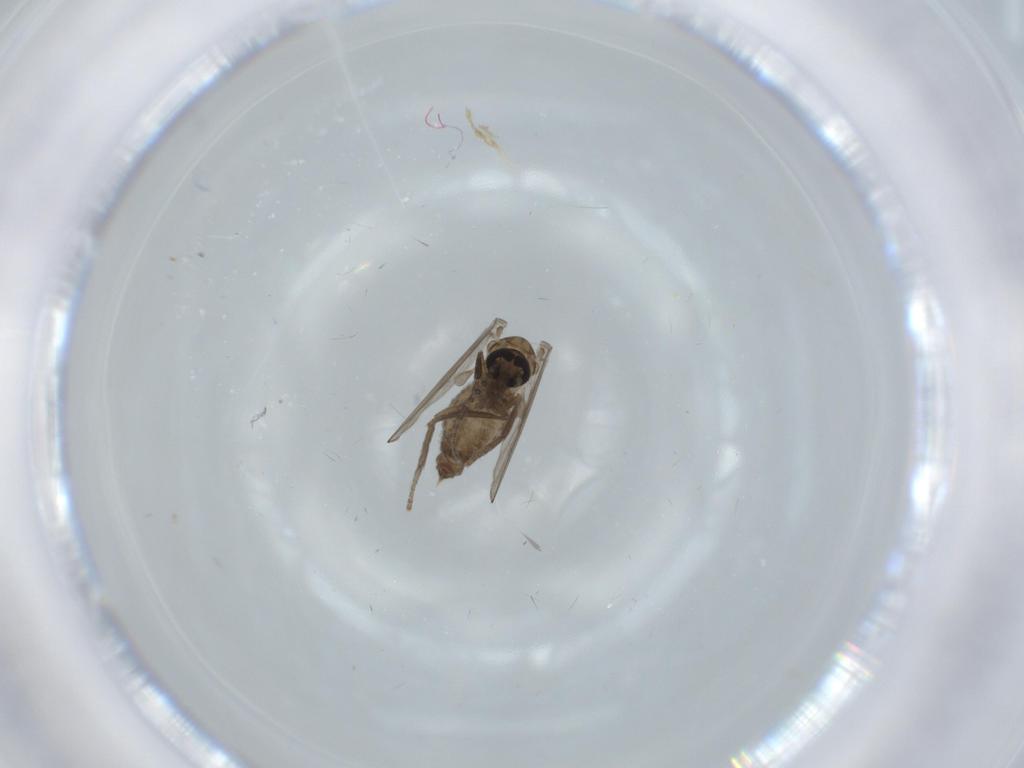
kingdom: Animalia
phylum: Arthropoda
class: Insecta
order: Diptera
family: Psychodidae
